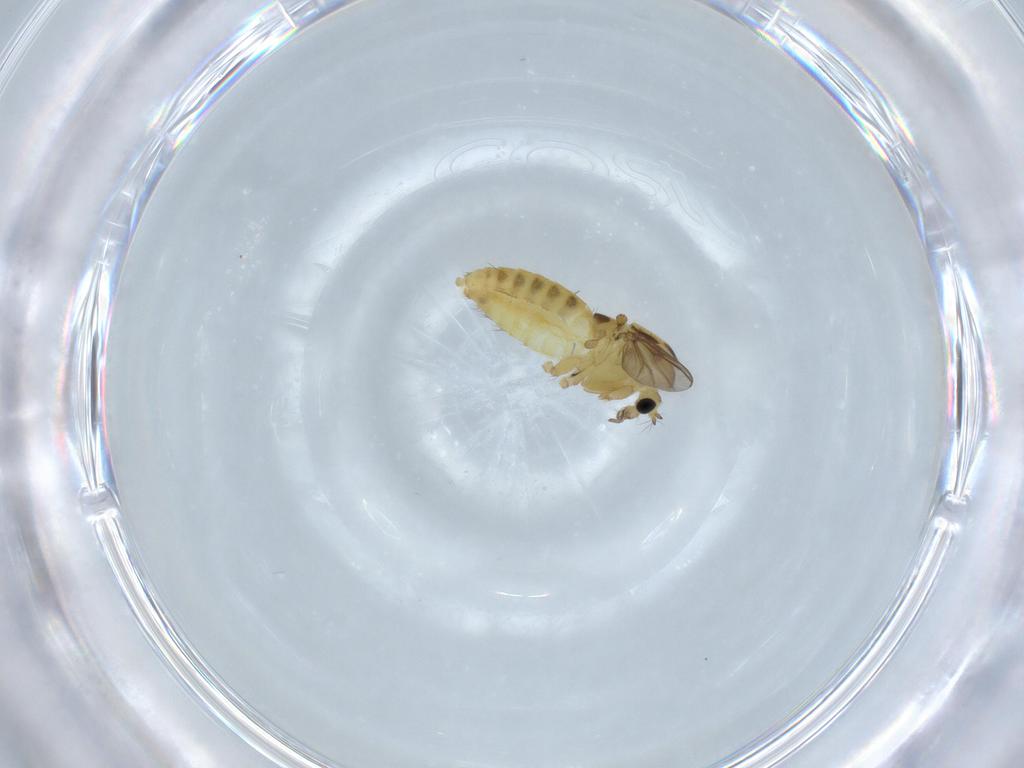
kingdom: Animalia
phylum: Arthropoda
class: Insecta
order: Diptera
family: Chironomidae
